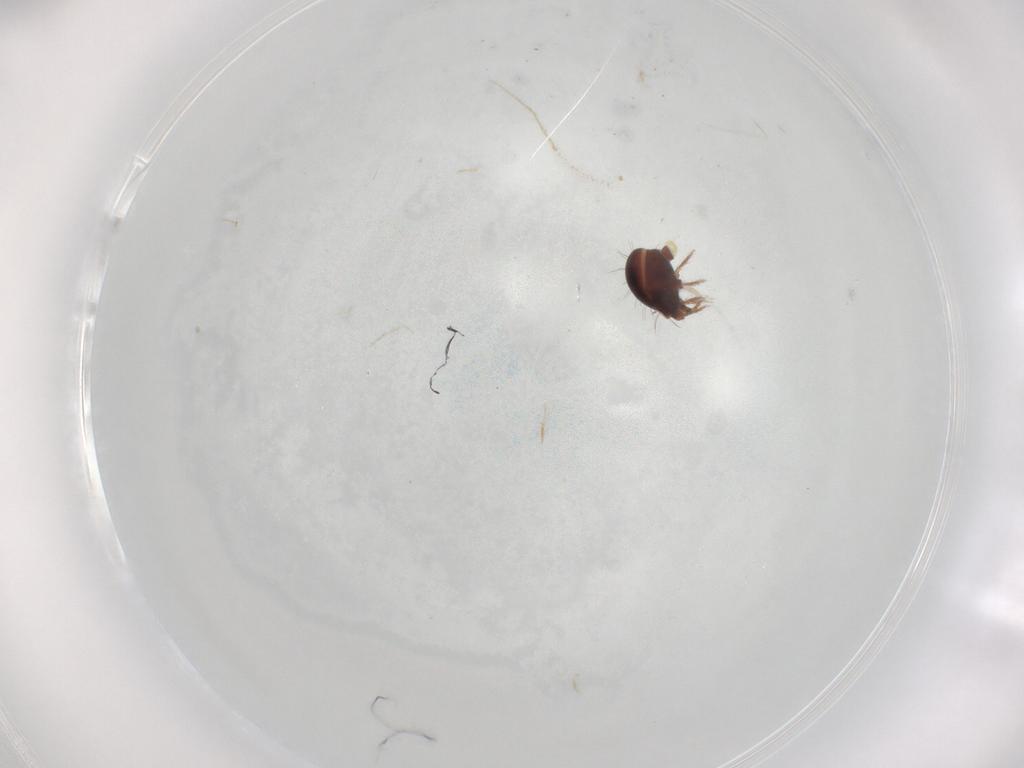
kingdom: Animalia
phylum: Arthropoda
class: Arachnida
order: Sarcoptiformes
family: Humerobatidae
